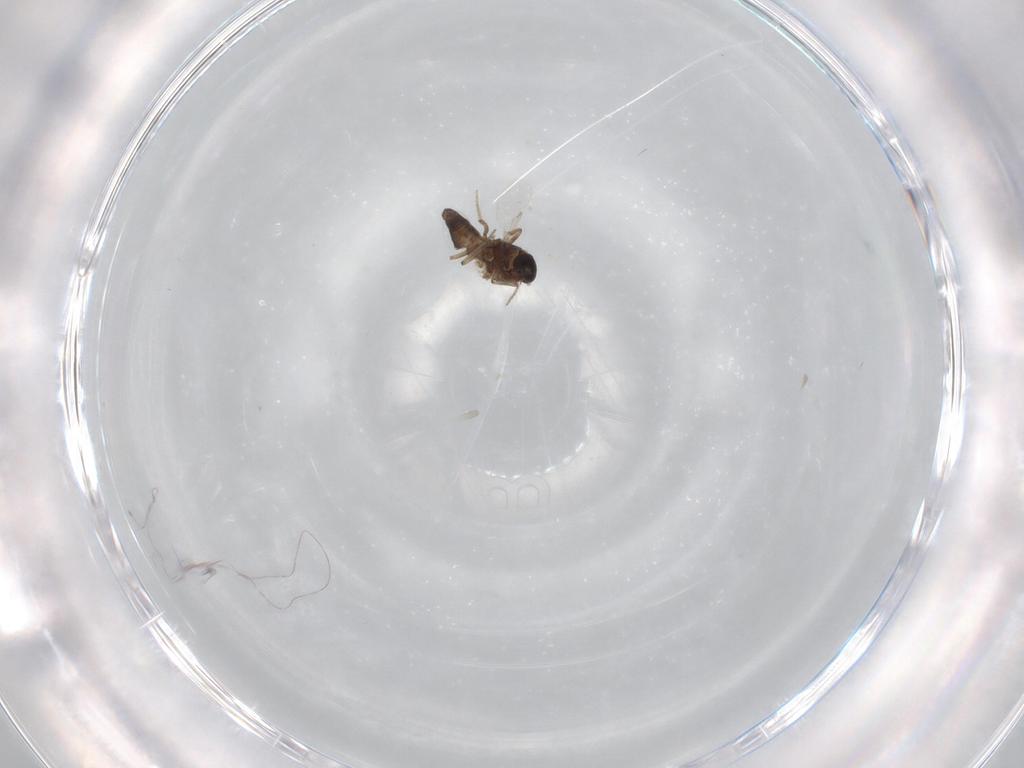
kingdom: Animalia
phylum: Arthropoda
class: Insecta
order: Diptera
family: Ceratopogonidae
